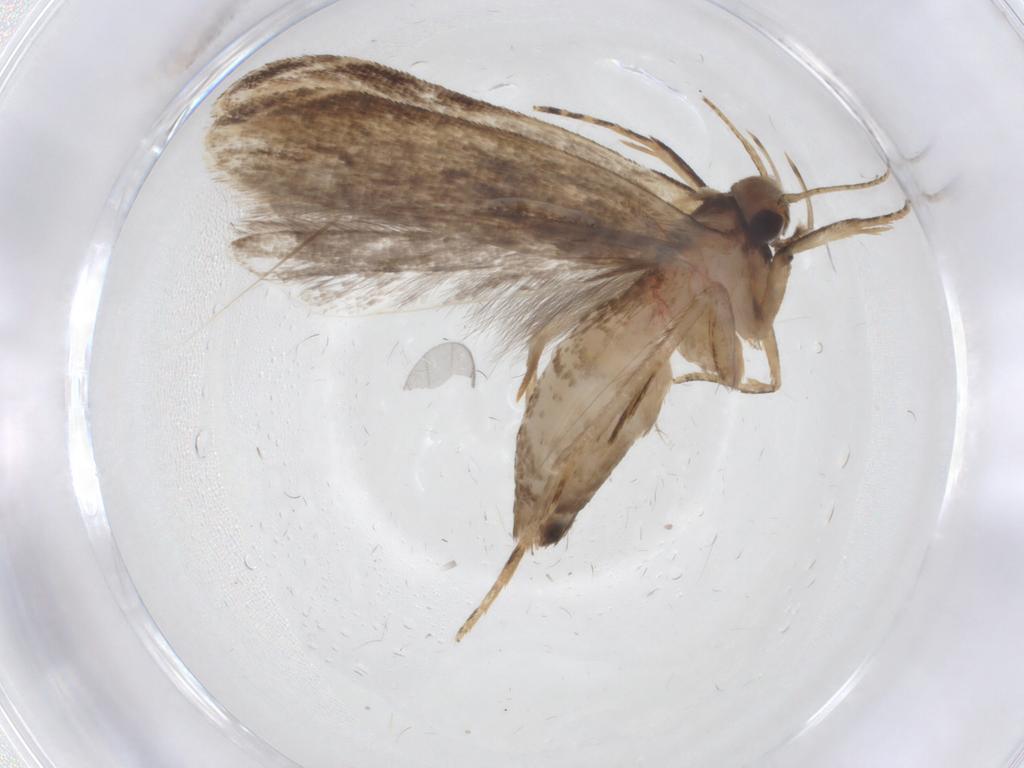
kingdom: Animalia
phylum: Arthropoda
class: Insecta
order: Lepidoptera
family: Gelechiidae
